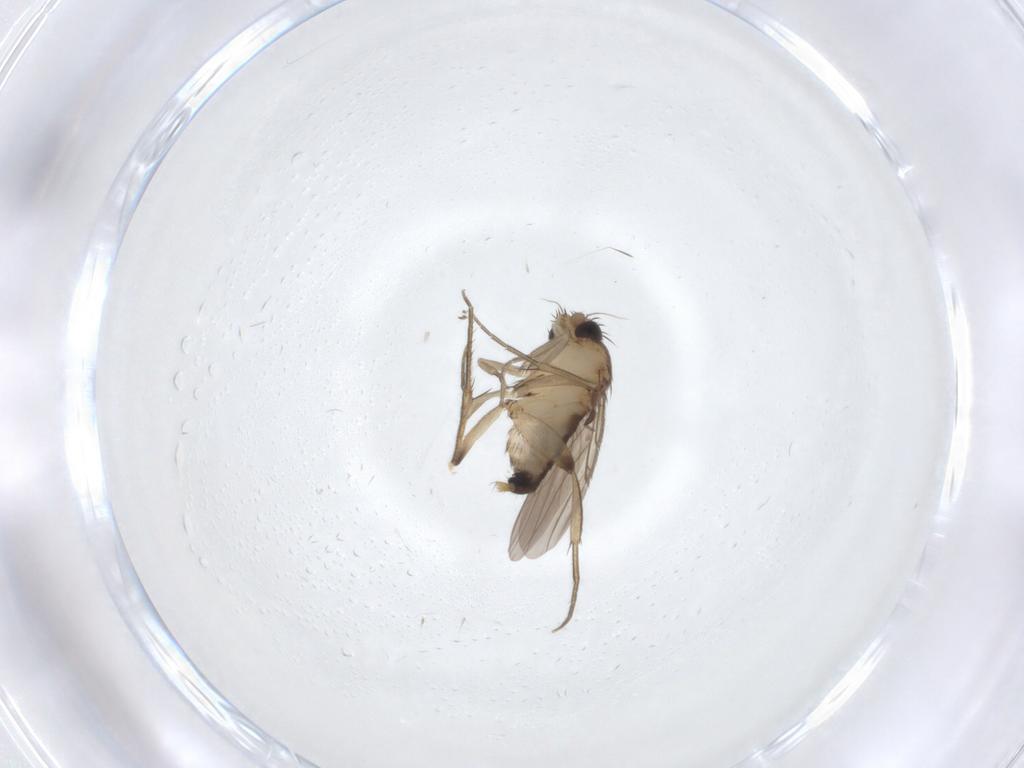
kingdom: Animalia
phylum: Arthropoda
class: Insecta
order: Diptera
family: Phoridae
